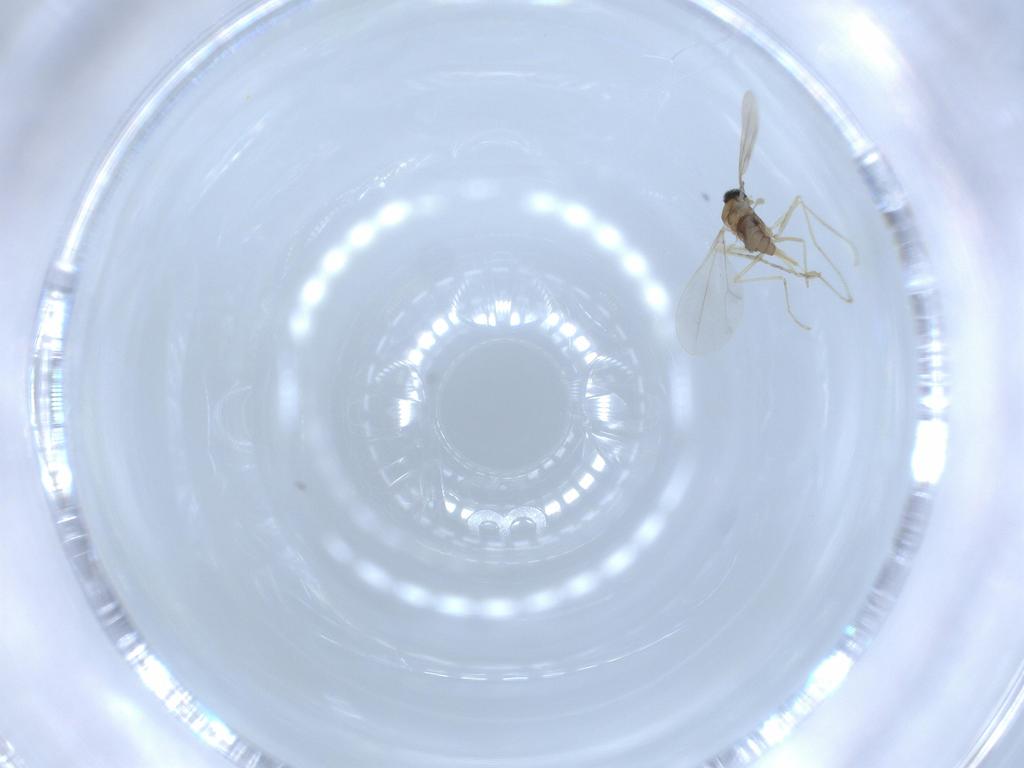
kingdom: Animalia
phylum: Arthropoda
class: Insecta
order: Diptera
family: Cecidomyiidae
